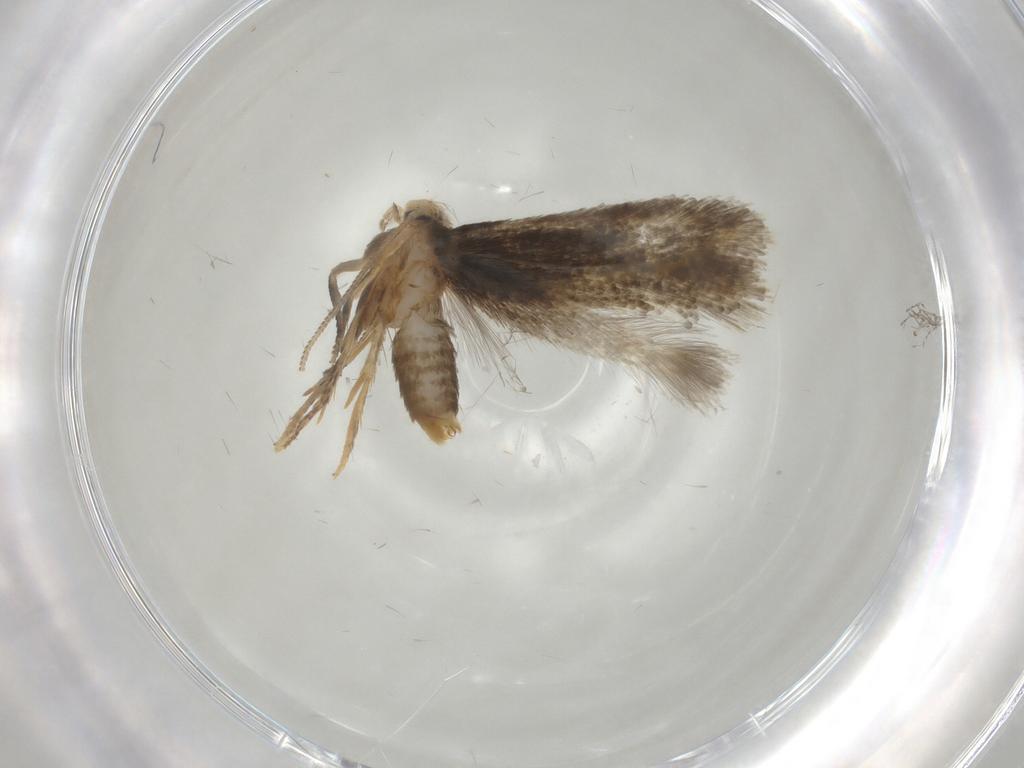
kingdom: Animalia
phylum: Arthropoda
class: Insecta
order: Lepidoptera
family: Nepticulidae
